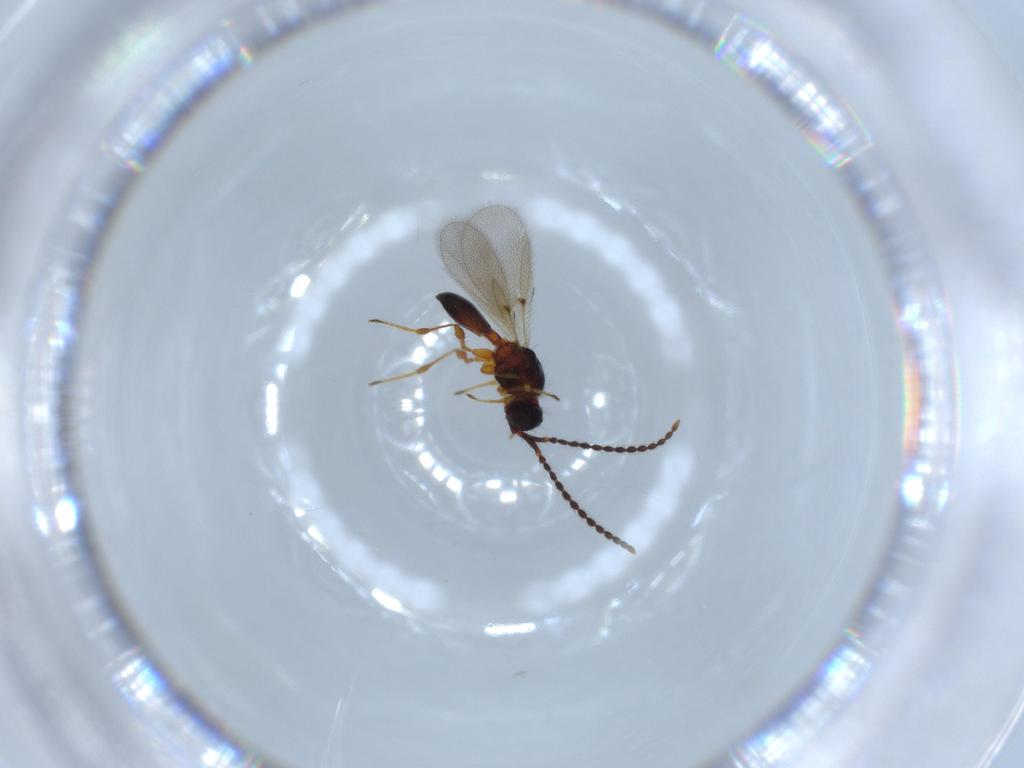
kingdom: Animalia
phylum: Arthropoda
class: Insecta
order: Hymenoptera
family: Diapriidae
